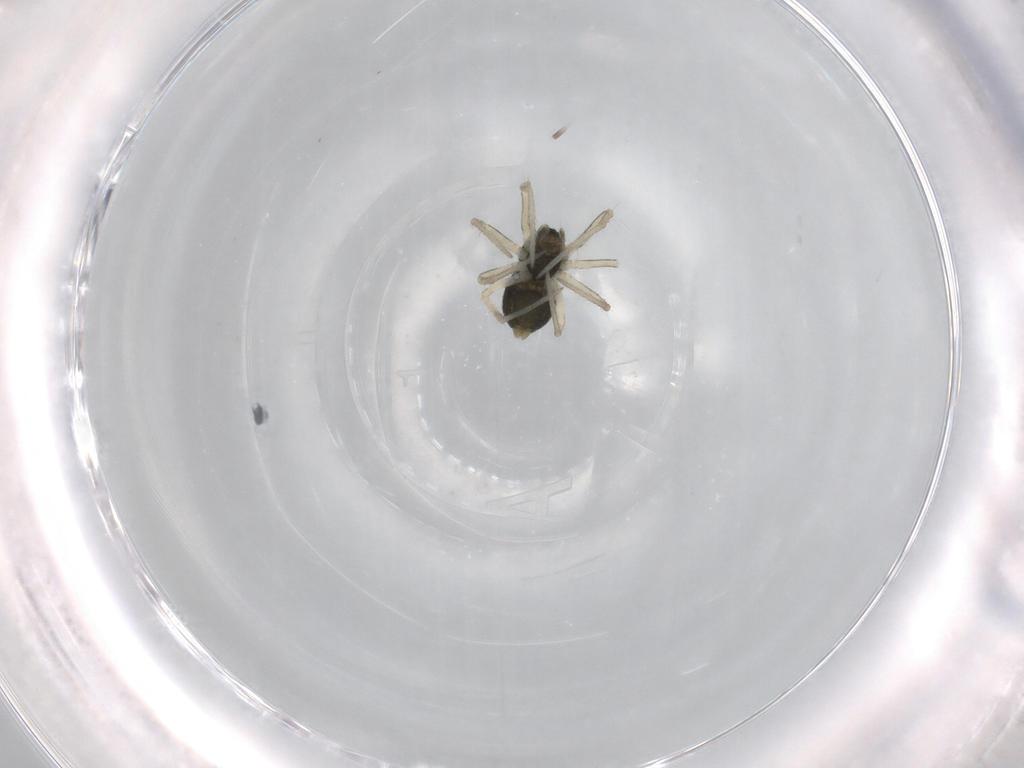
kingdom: Animalia
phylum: Arthropoda
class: Arachnida
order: Araneae
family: Linyphiidae
